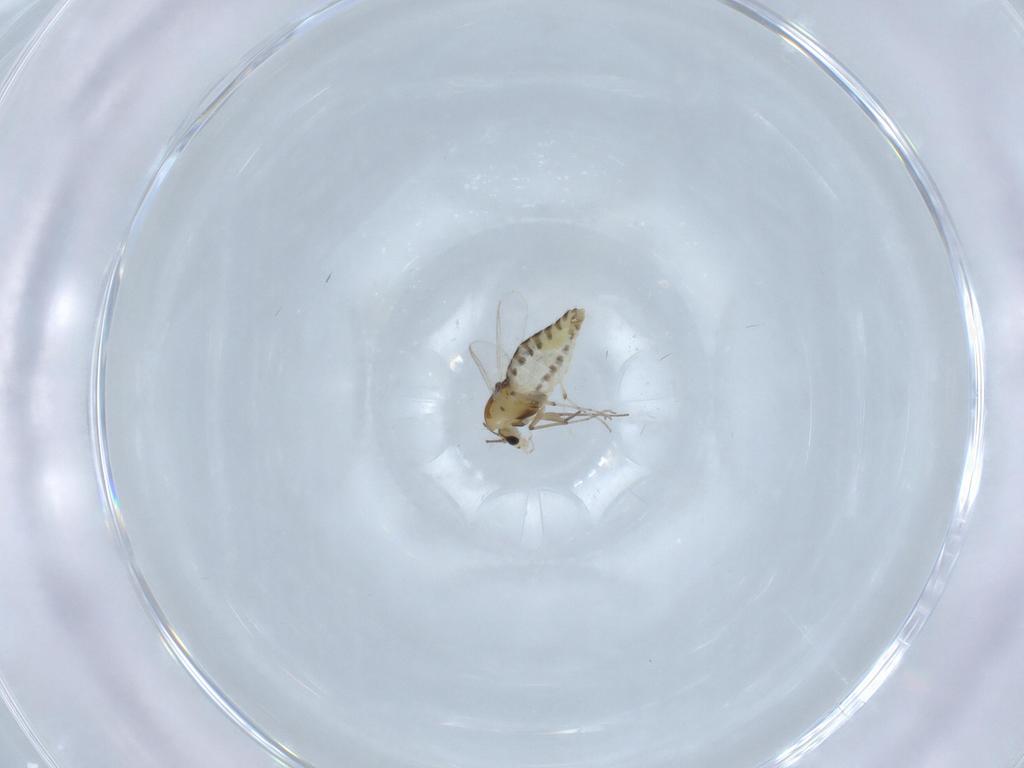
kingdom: Animalia
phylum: Arthropoda
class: Insecta
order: Diptera
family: Chironomidae
